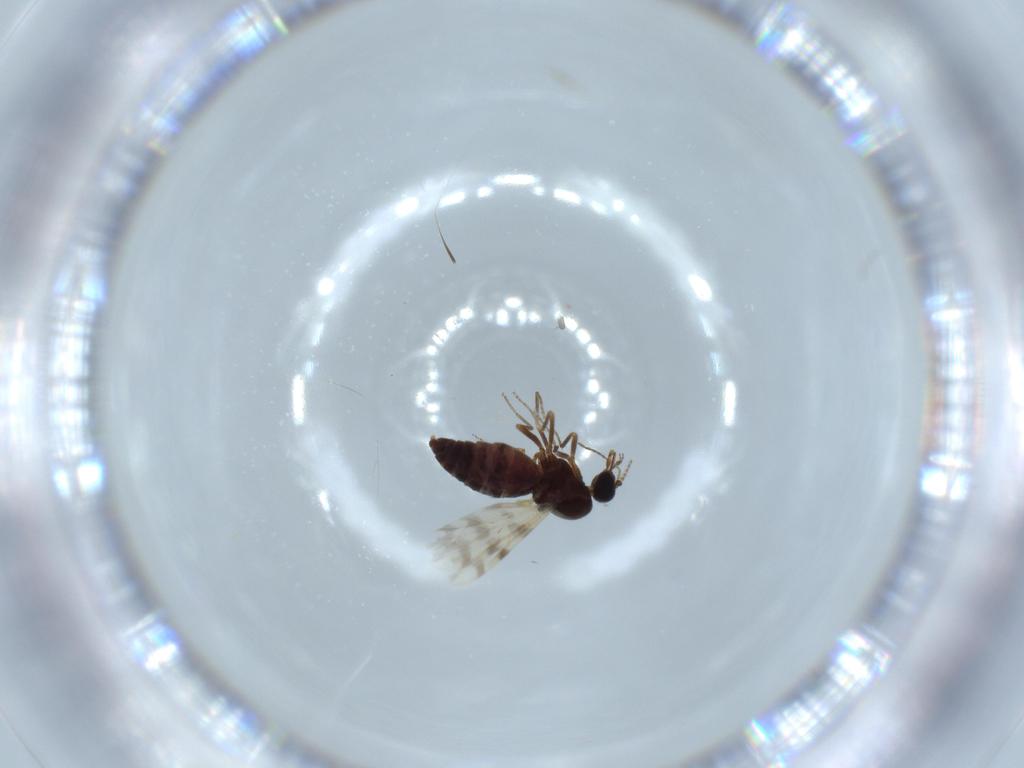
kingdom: Animalia
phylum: Arthropoda
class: Insecta
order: Diptera
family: Ceratopogonidae
